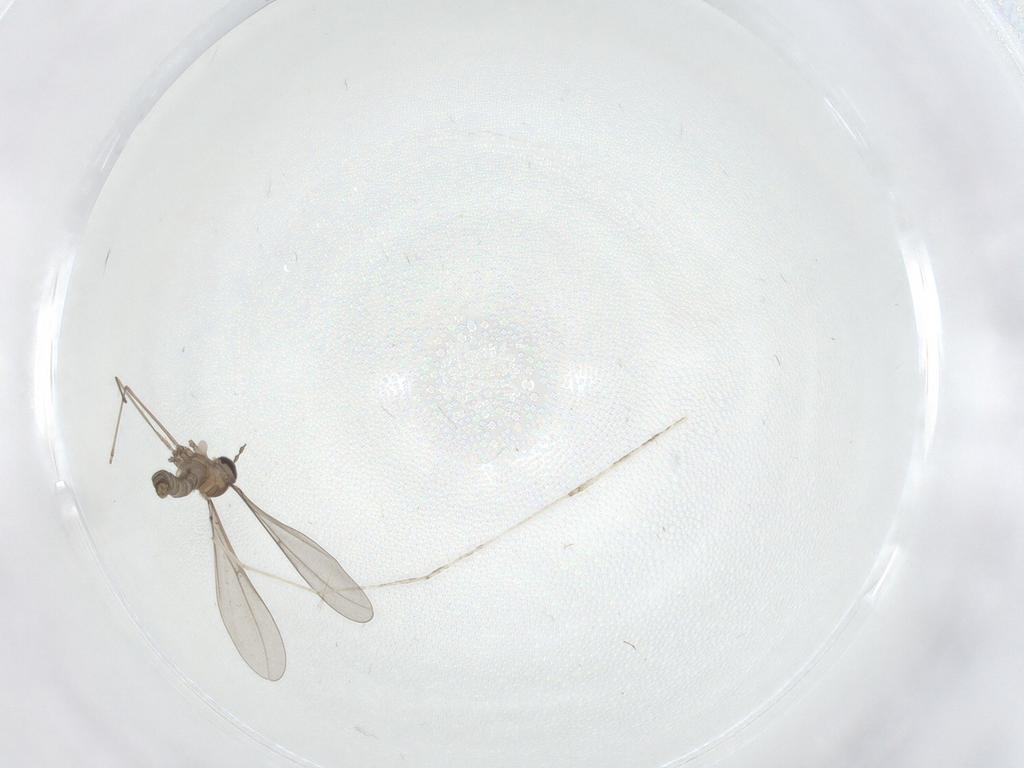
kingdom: Animalia
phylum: Arthropoda
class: Insecta
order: Diptera
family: Cecidomyiidae
